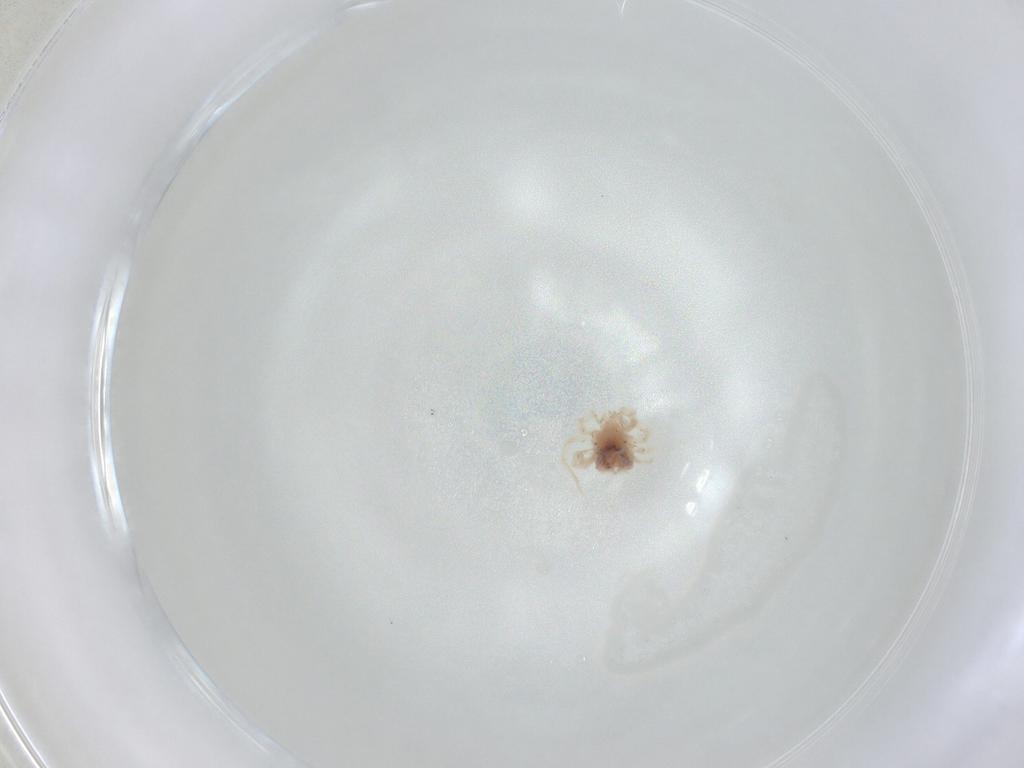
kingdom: Animalia
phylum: Arthropoda
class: Arachnida
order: Trombidiformes
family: Anystidae
